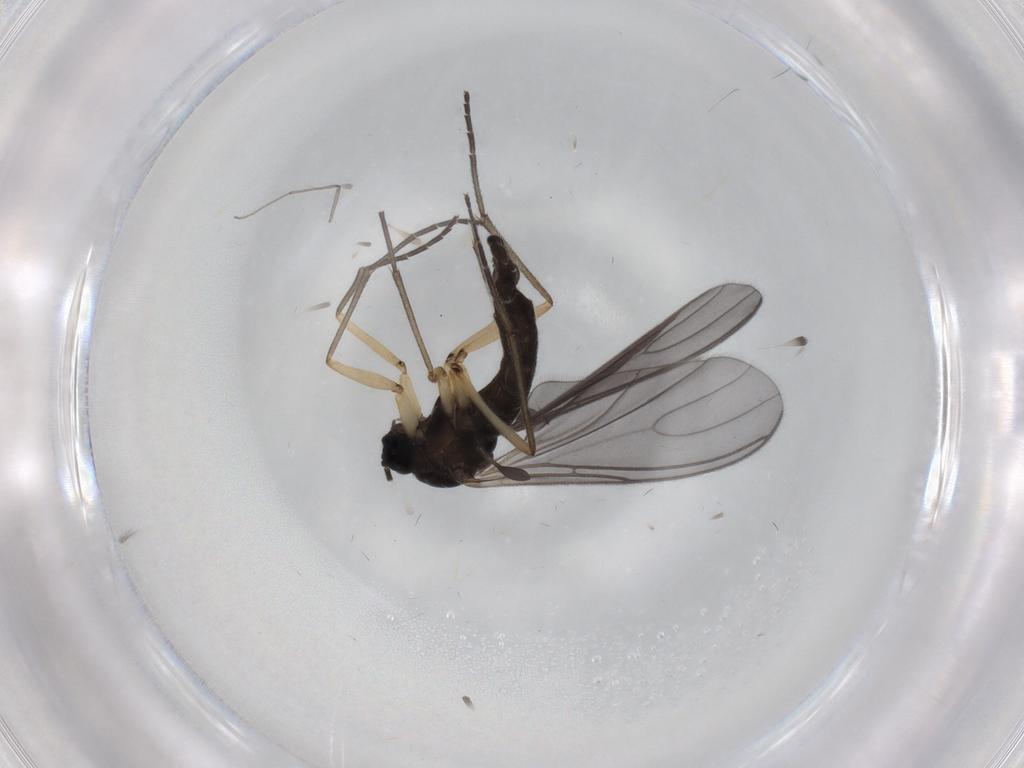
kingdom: Animalia
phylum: Arthropoda
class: Insecta
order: Diptera
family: Sciaridae
